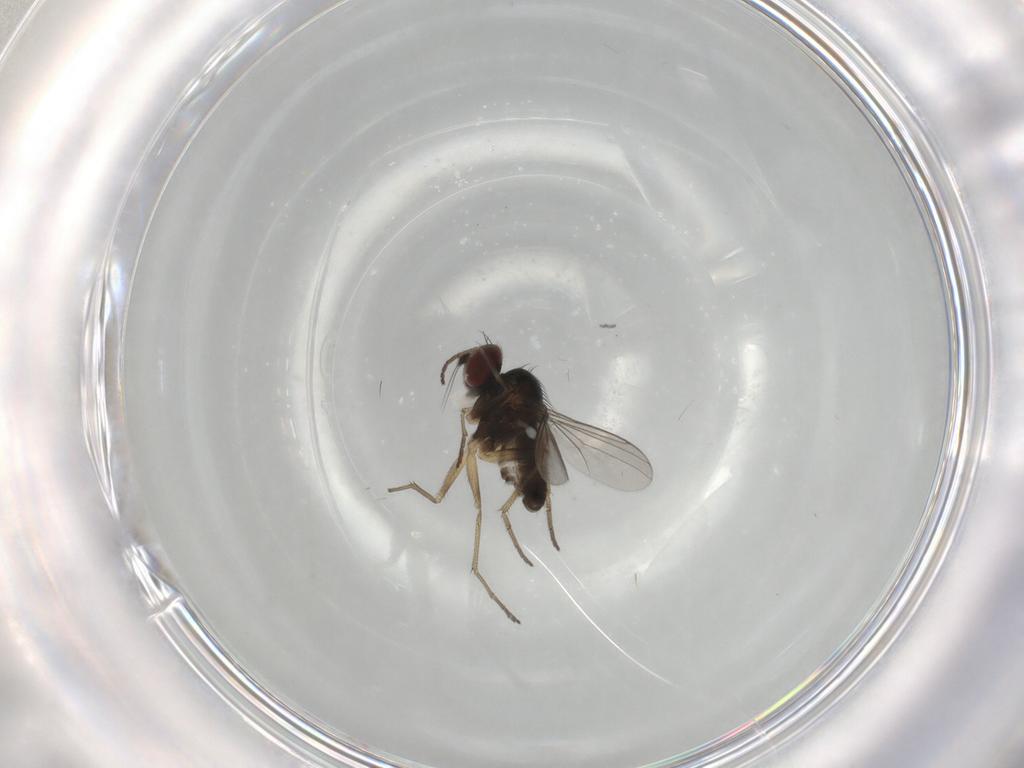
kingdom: Animalia
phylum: Arthropoda
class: Insecta
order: Diptera
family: Dolichopodidae
